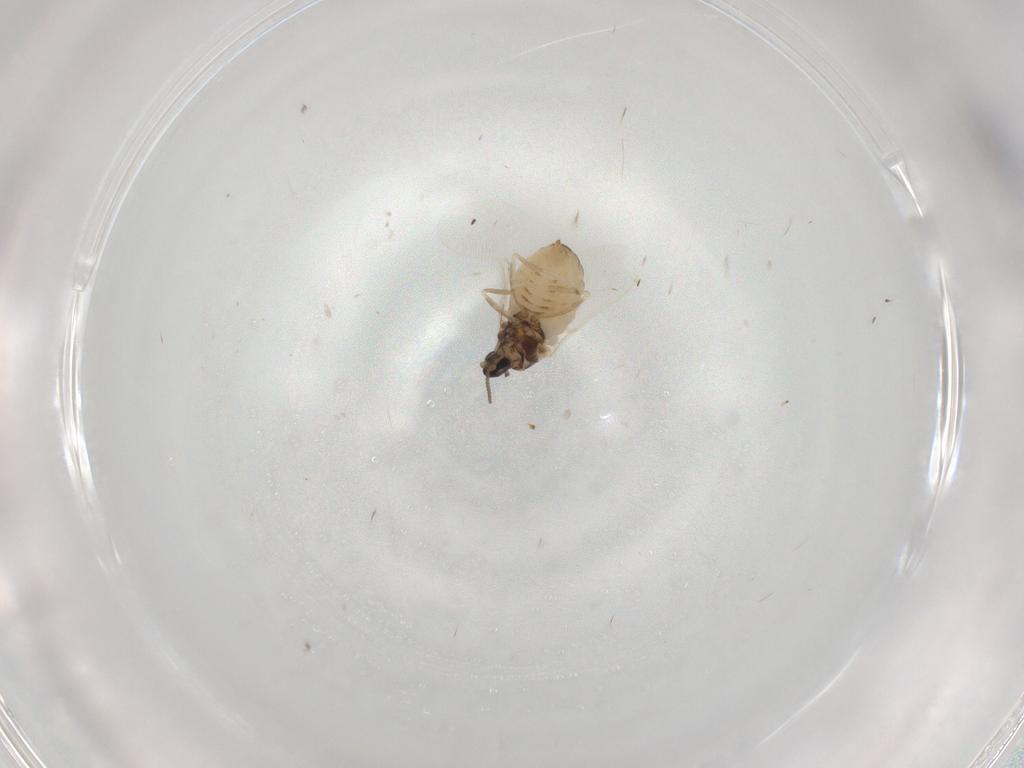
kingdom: Animalia
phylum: Arthropoda
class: Insecta
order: Diptera
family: Cecidomyiidae
